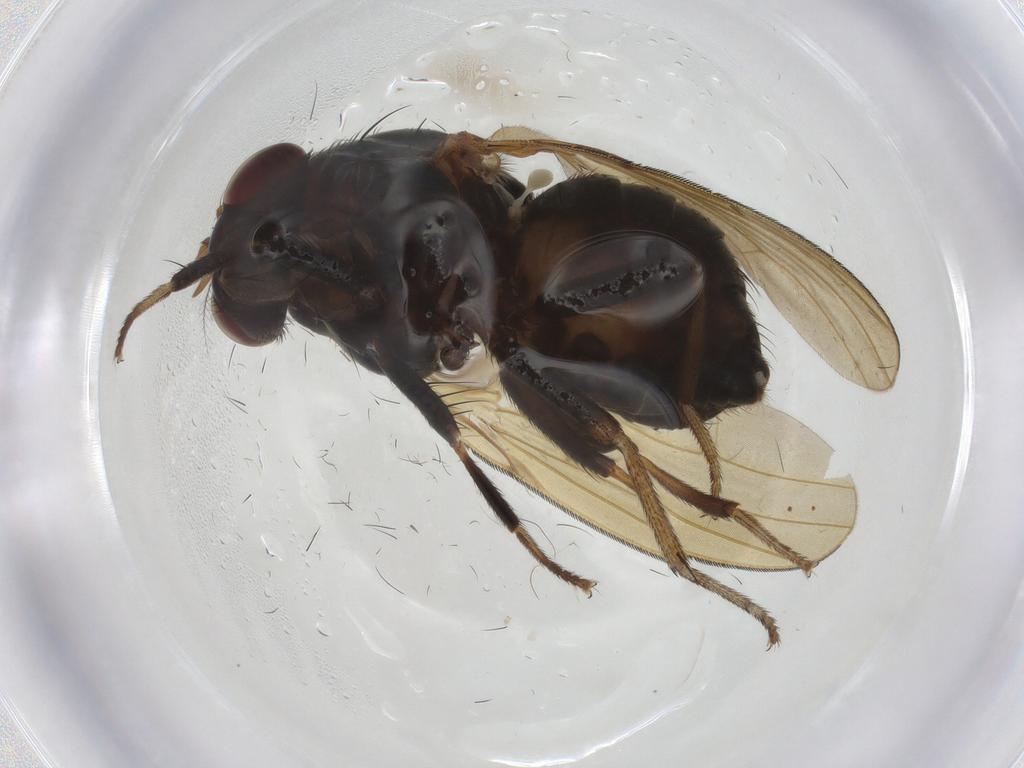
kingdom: Animalia
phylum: Arthropoda
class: Insecta
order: Diptera
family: Lauxaniidae
